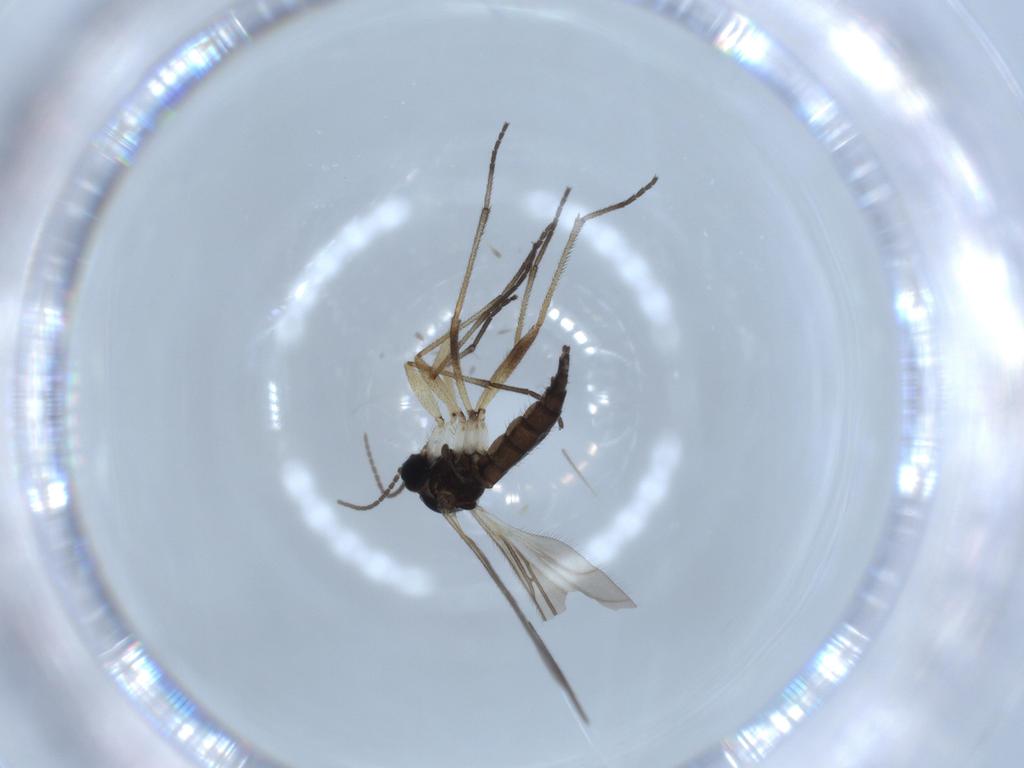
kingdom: Animalia
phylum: Arthropoda
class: Insecta
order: Diptera
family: Sciaridae
